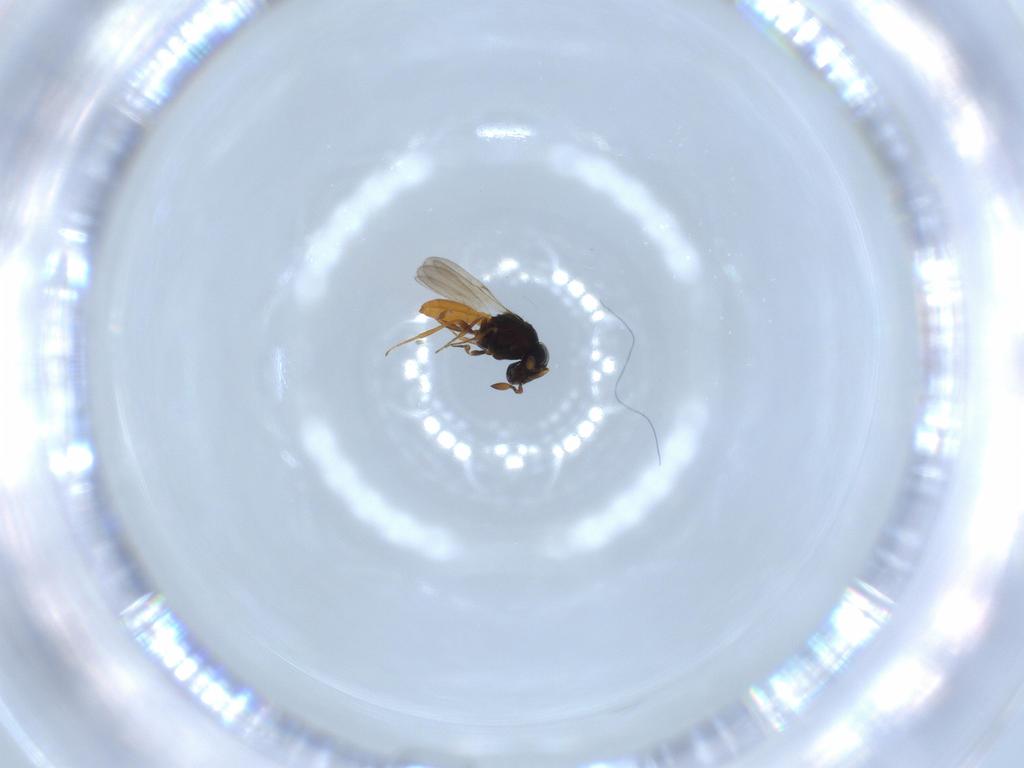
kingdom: Animalia
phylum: Arthropoda
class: Insecta
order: Hymenoptera
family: Scelionidae
